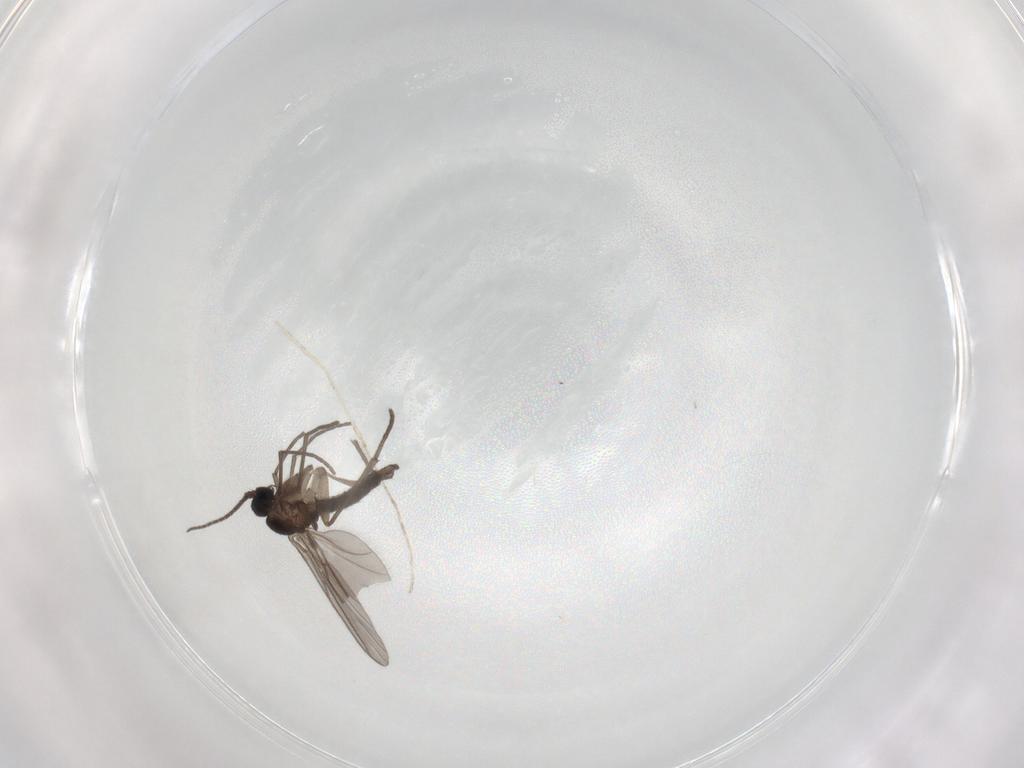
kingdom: Animalia
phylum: Arthropoda
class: Insecta
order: Diptera
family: Sciaridae
